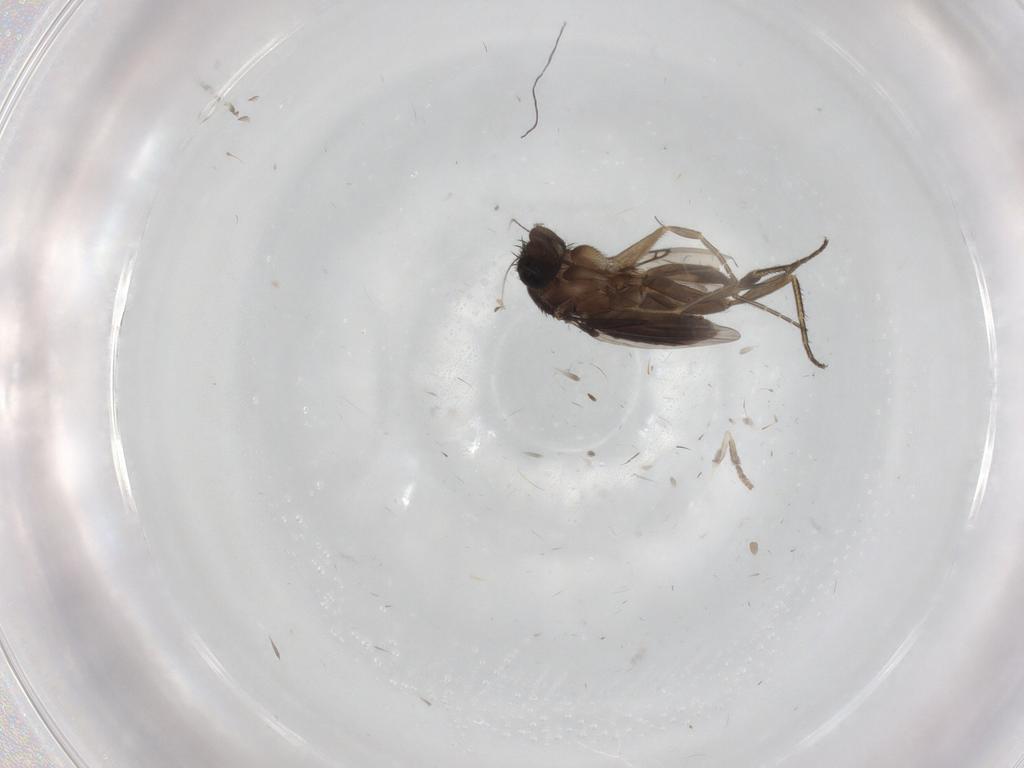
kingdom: Animalia
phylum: Arthropoda
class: Insecta
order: Diptera
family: Phoridae
